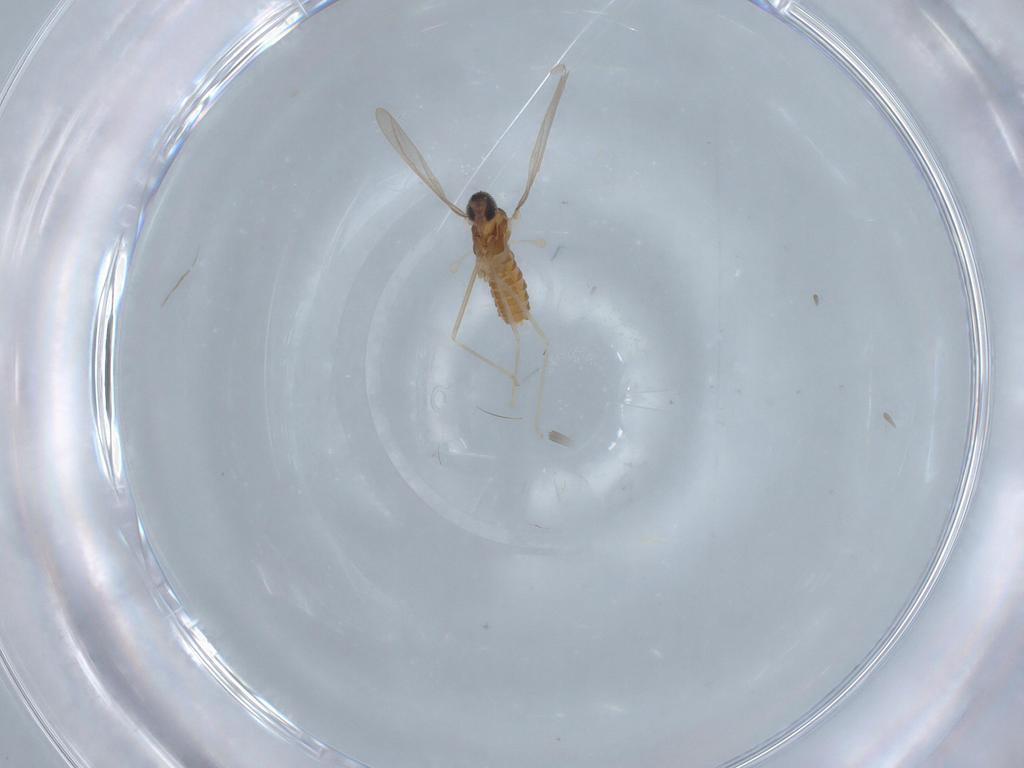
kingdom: Animalia
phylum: Arthropoda
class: Insecta
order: Diptera
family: Cecidomyiidae
